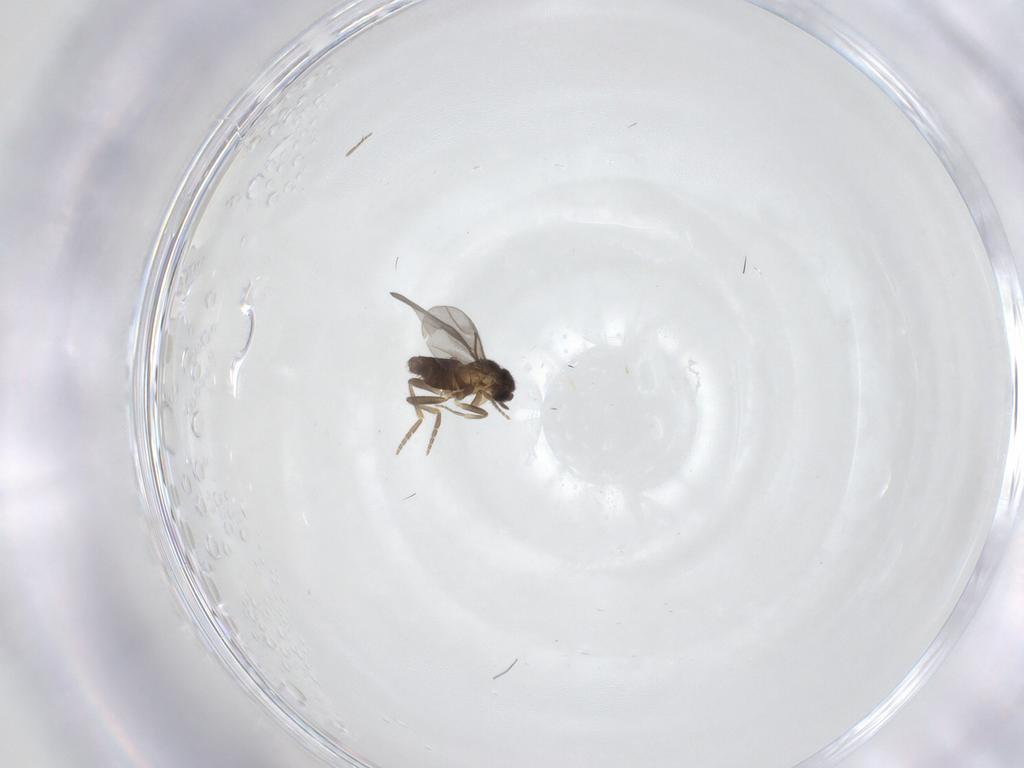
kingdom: Animalia
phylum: Arthropoda
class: Insecta
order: Diptera
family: Tabanidae
